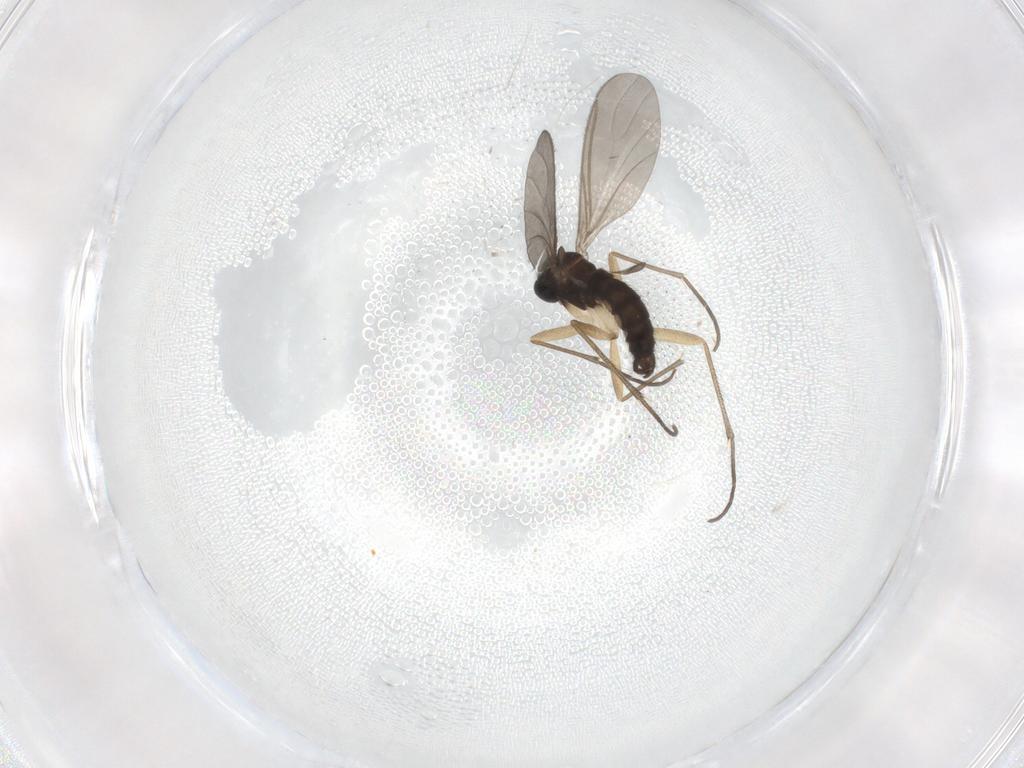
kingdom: Animalia
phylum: Arthropoda
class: Insecta
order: Diptera
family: Sciaridae
